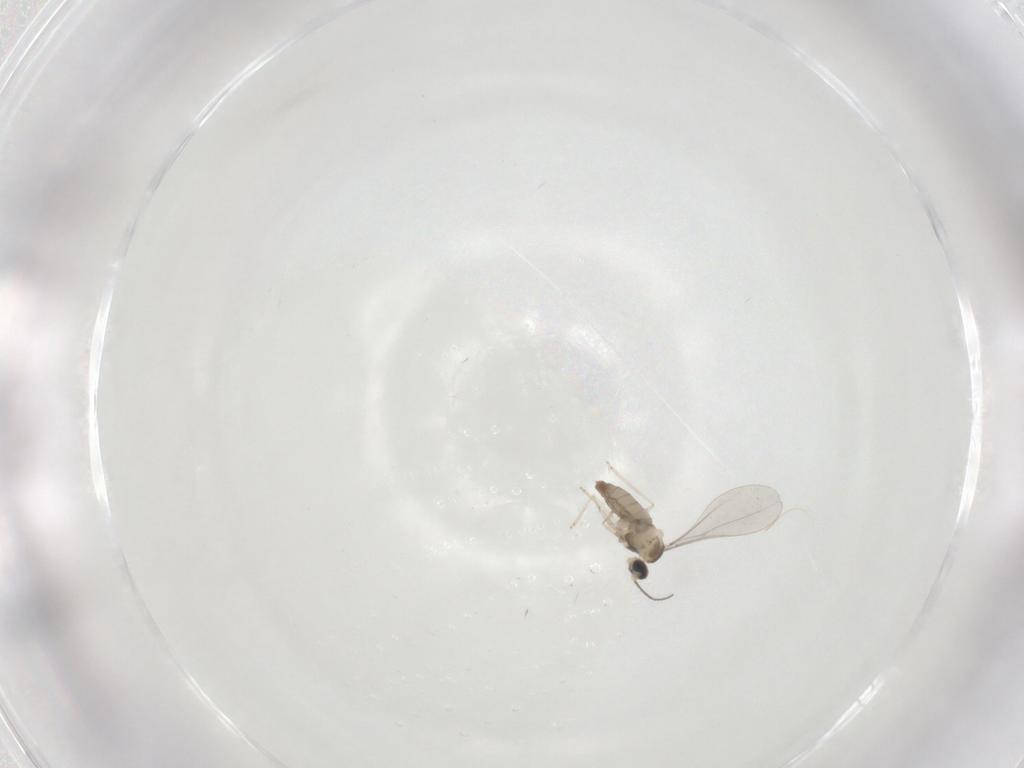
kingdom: Animalia
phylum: Arthropoda
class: Insecta
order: Diptera
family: Cecidomyiidae
